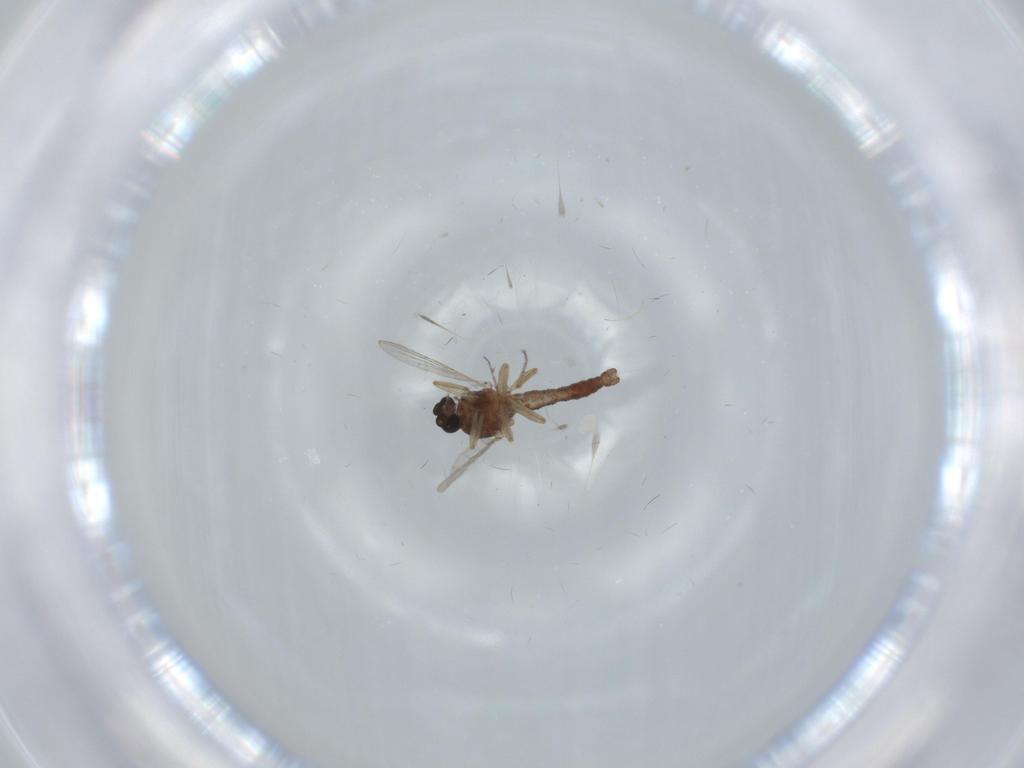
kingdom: Animalia
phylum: Arthropoda
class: Insecta
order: Diptera
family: Ceratopogonidae
